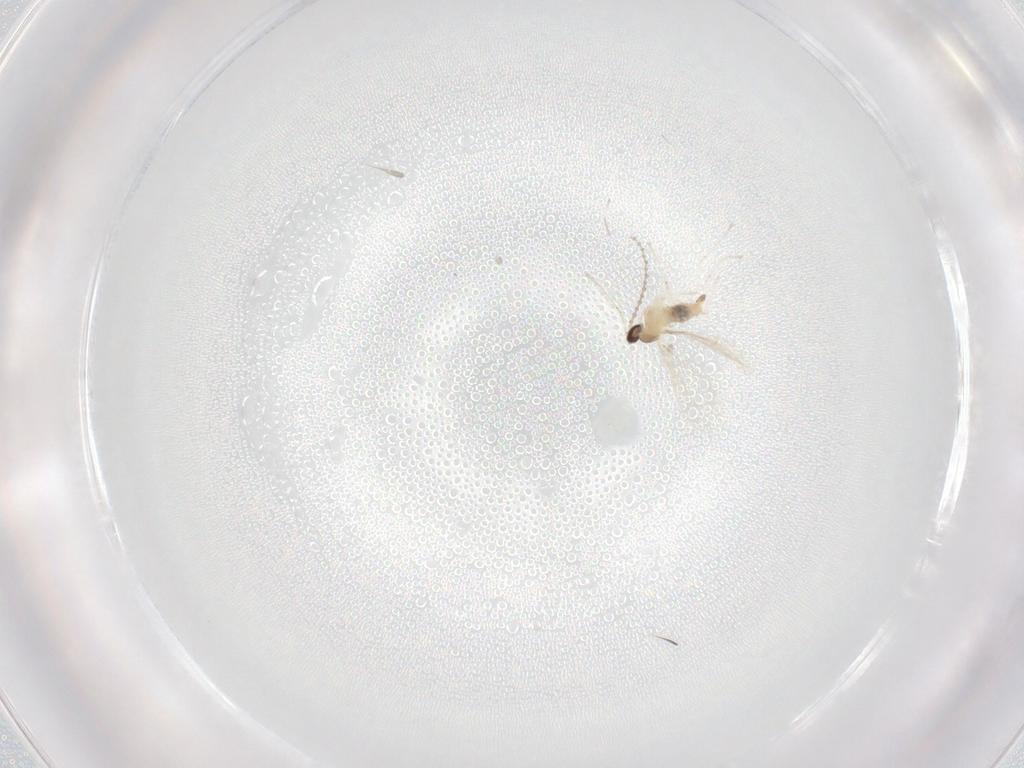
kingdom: Animalia
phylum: Arthropoda
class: Insecta
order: Diptera
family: Cecidomyiidae
